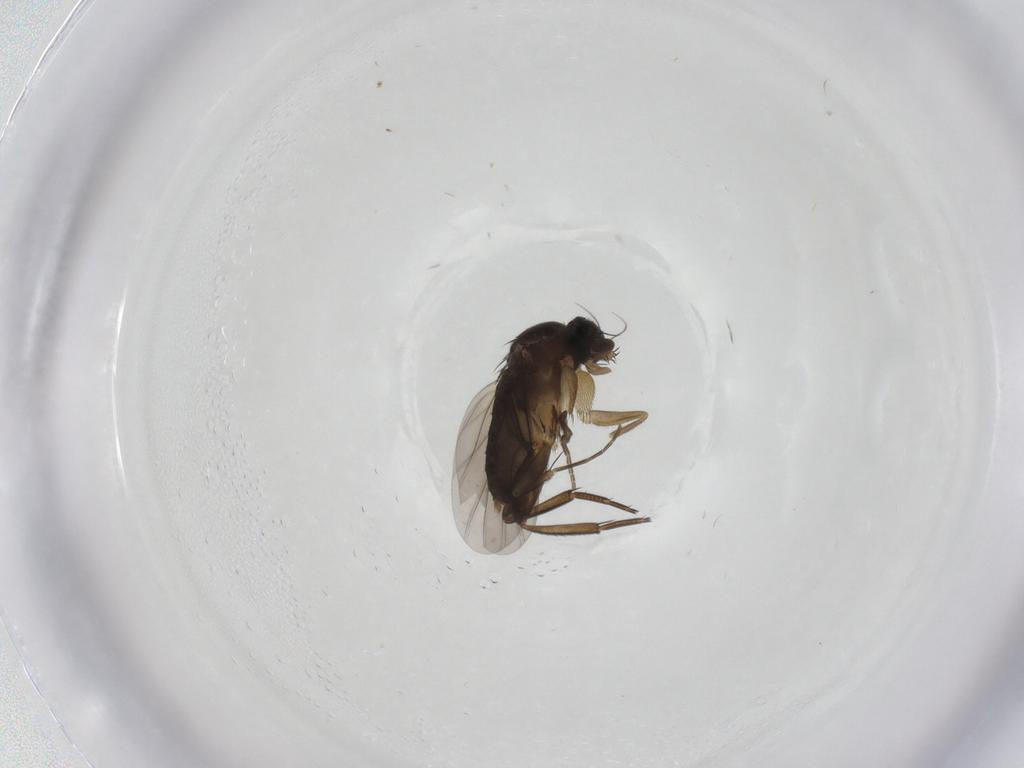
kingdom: Animalia
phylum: Arthropoda
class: Insecta
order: Diptera
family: Phoridae
